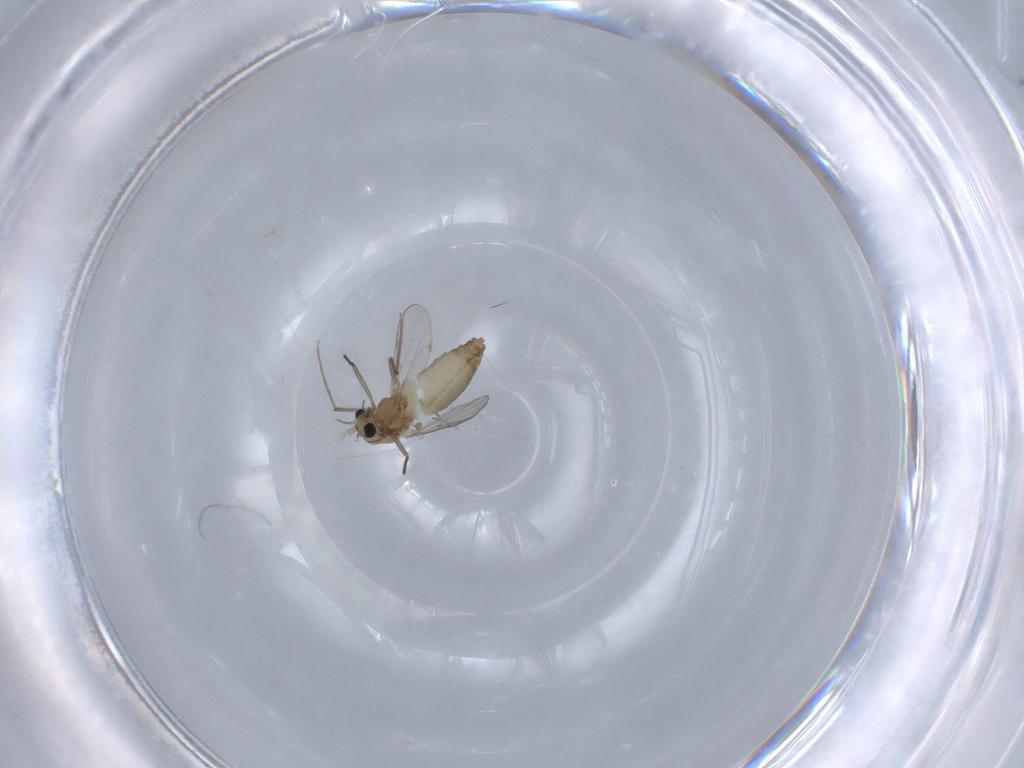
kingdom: Animalia
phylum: Arthropoda
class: Insecta
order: Diptera
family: Chironomidae
